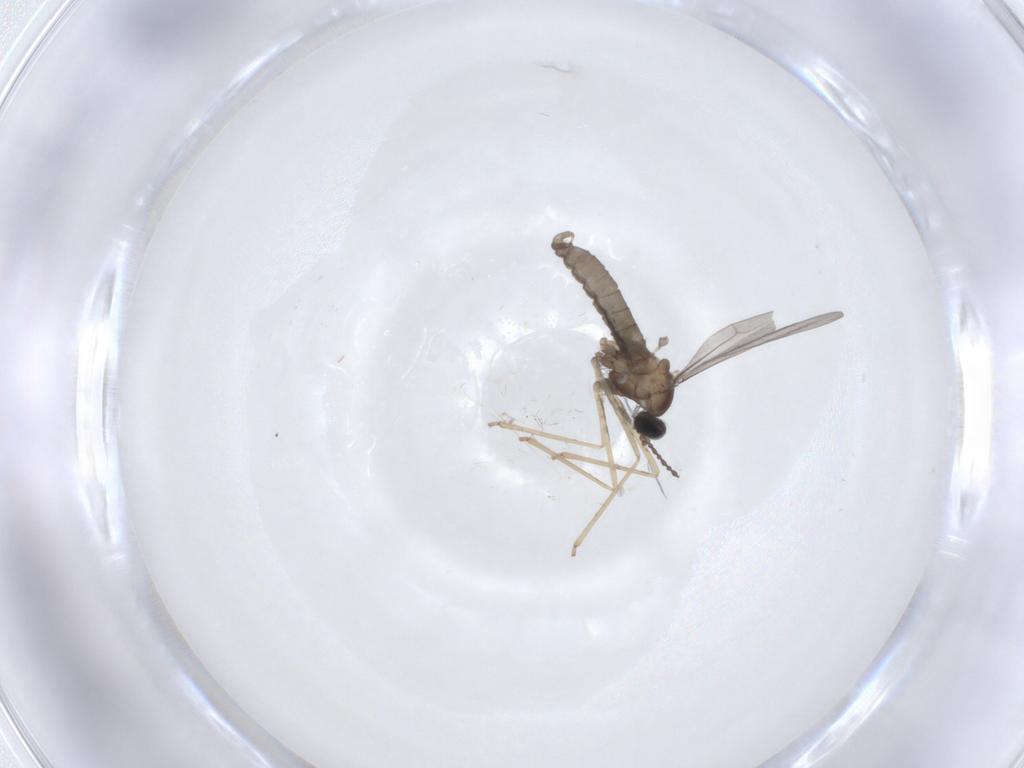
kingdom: Animalia
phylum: Arthropoda
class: Insecta
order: Diptera
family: Cecidomyiidae
